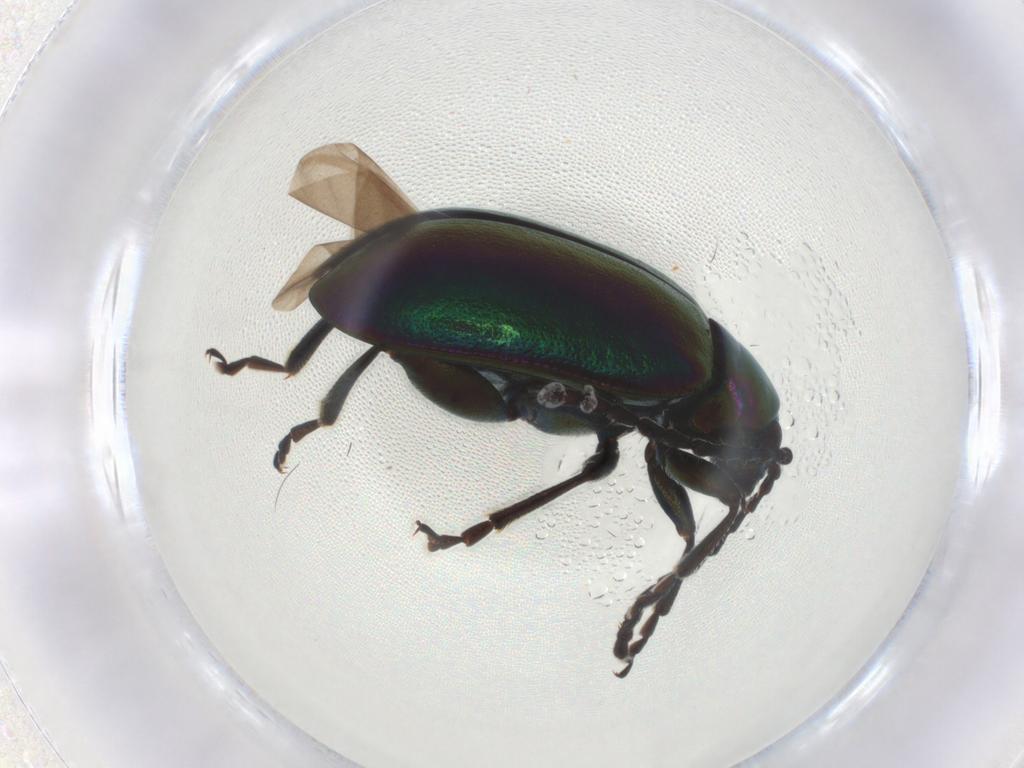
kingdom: Animalia
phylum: Arthropoda
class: Insecta
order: Coleoptera
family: Chrysomelidae
